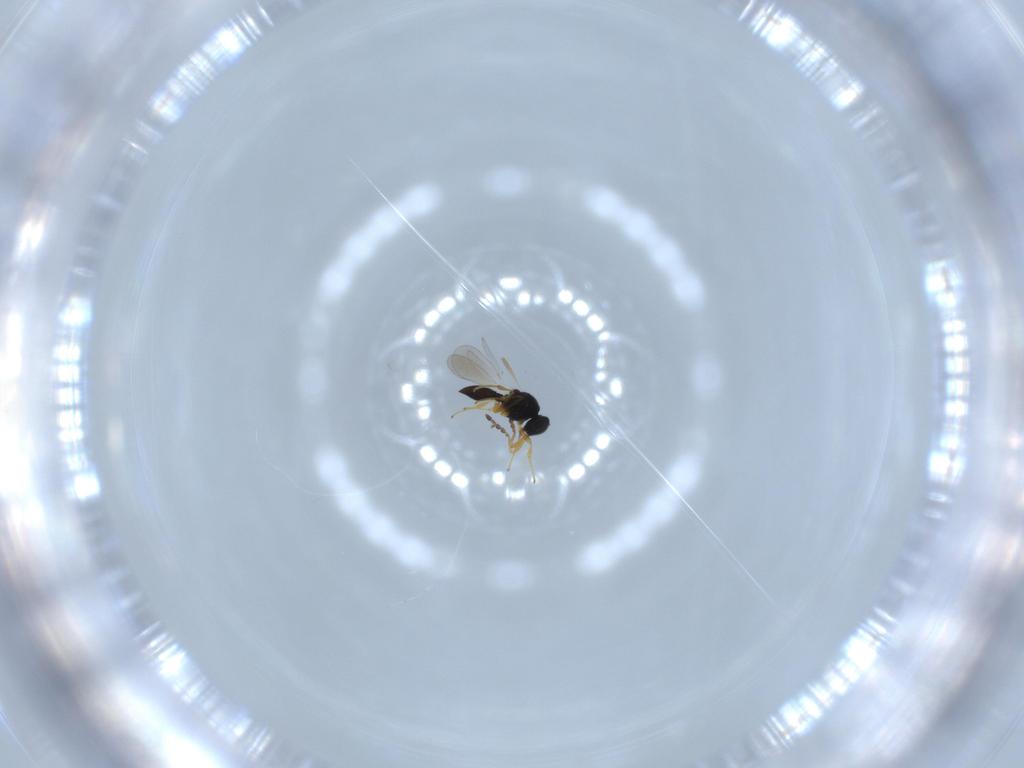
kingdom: Animalia
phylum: Arthropoda
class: Insecta
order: Hymenoptera
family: Platygastridae
